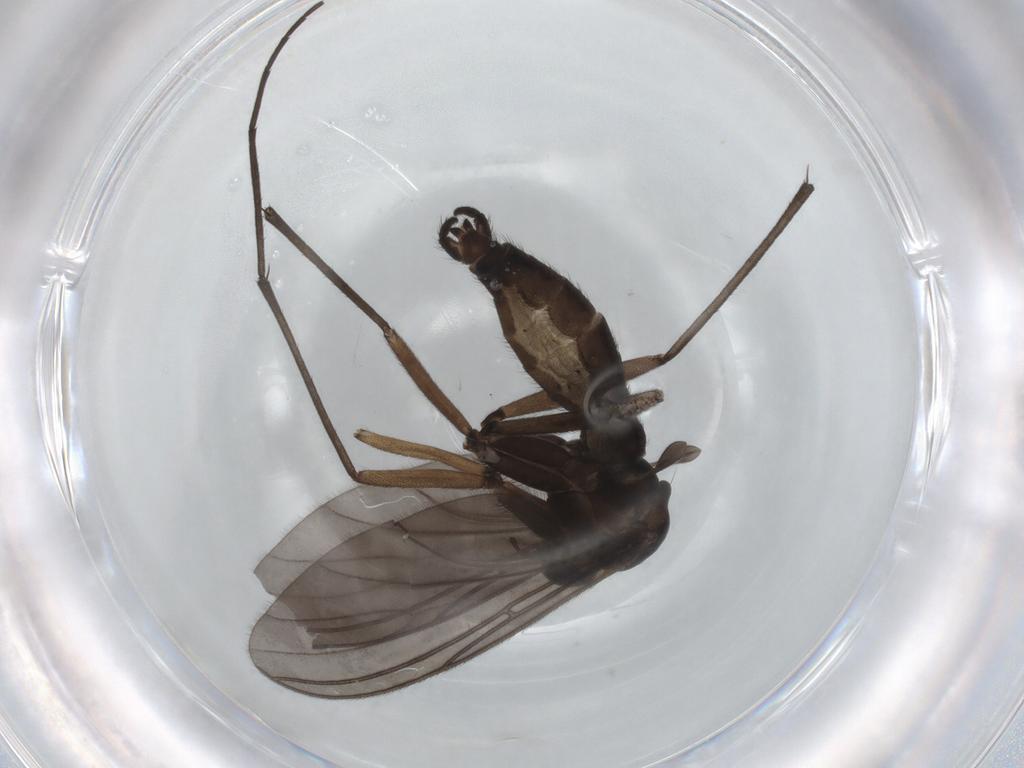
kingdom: Animalia
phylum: Arthropoda
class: Insecta
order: Diptera
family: Sciaridae
